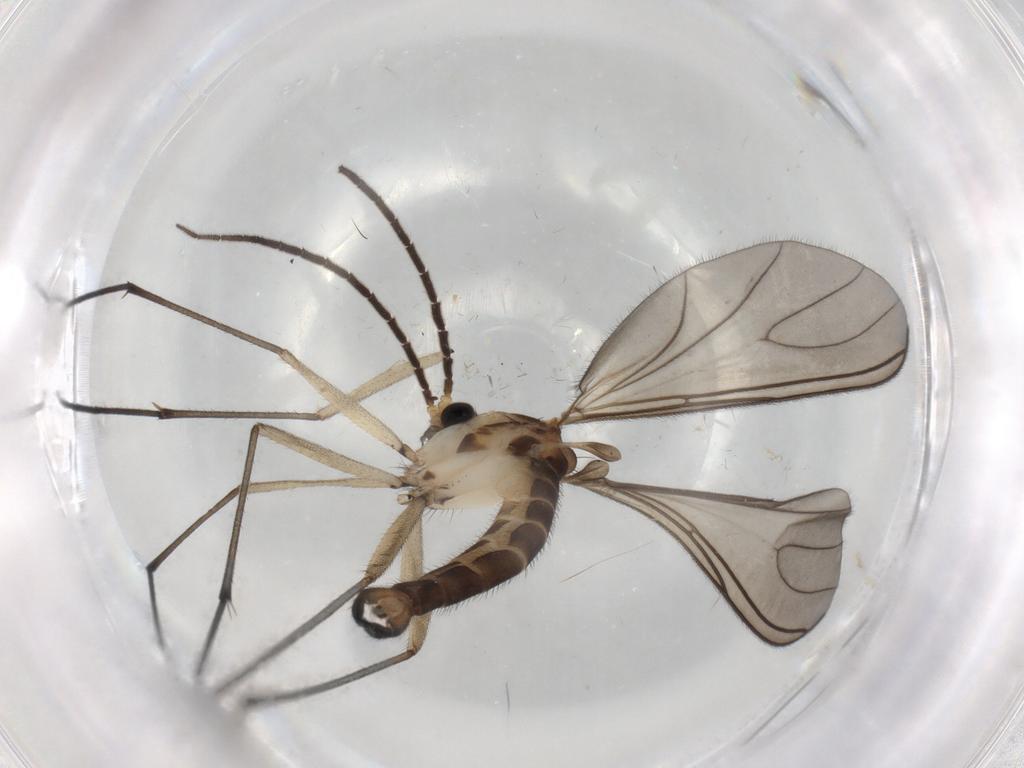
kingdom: Animalia
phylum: Arthropoda
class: Insecta
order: Diptera
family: Sciaridae
